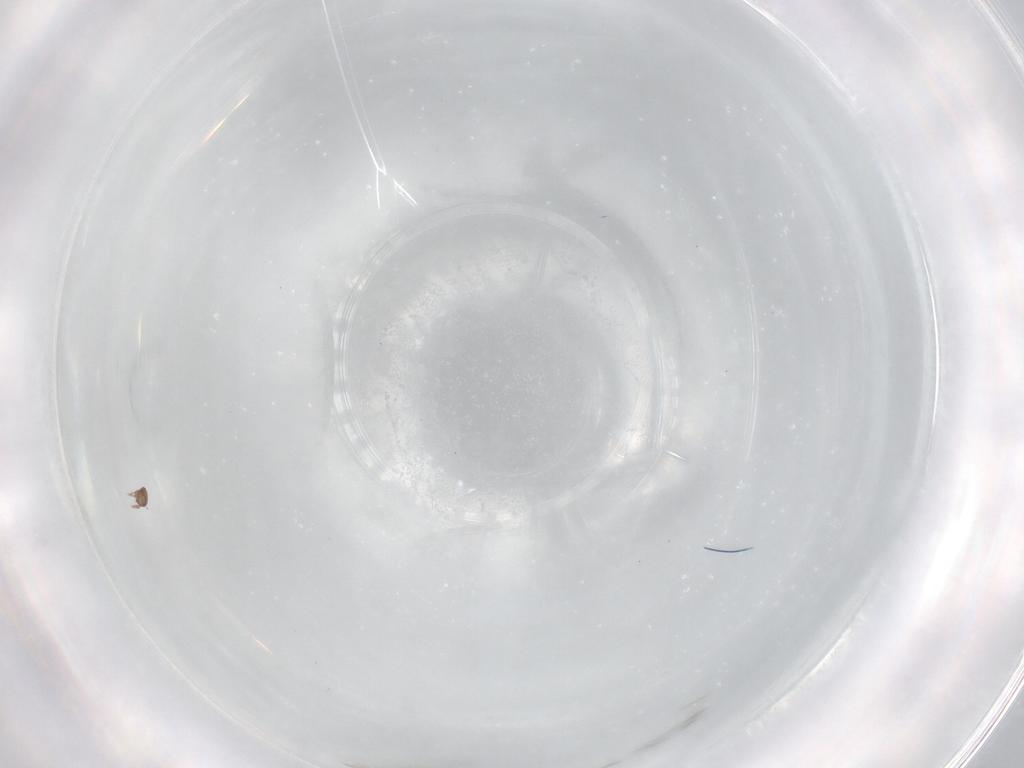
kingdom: Animalia
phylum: Arthropoda
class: Arachnida
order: Sarcoptiformes
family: Eremaeidae
